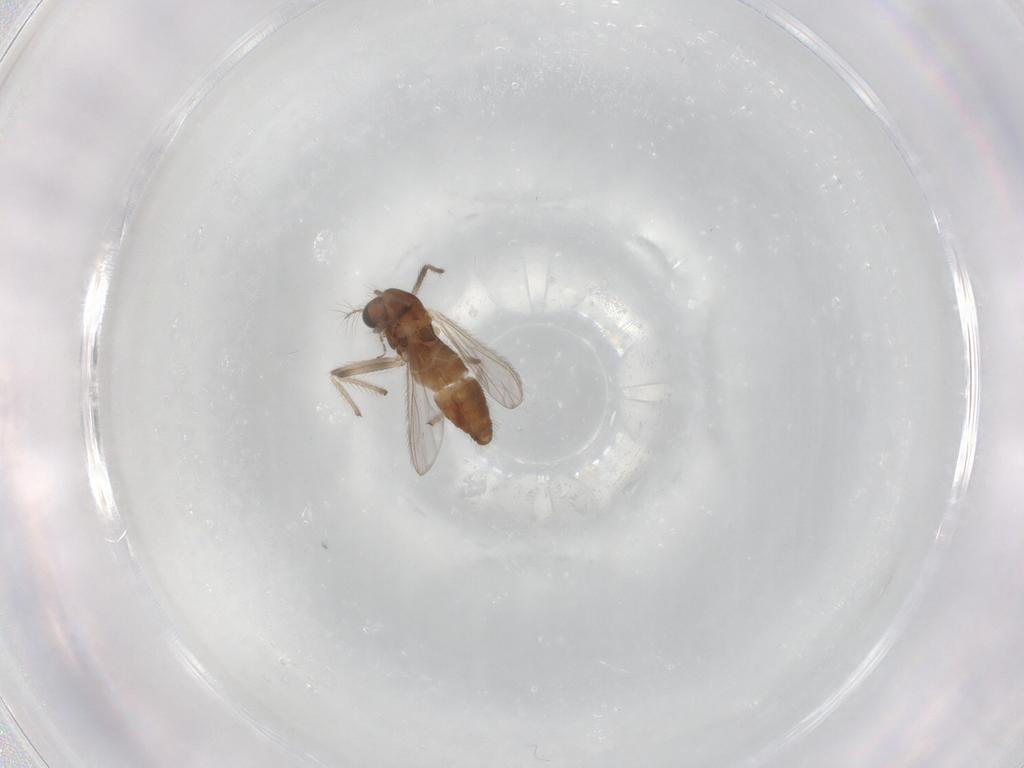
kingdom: Animalia
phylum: Arthropoda
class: Insecta
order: Diptera
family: Chironomidae
